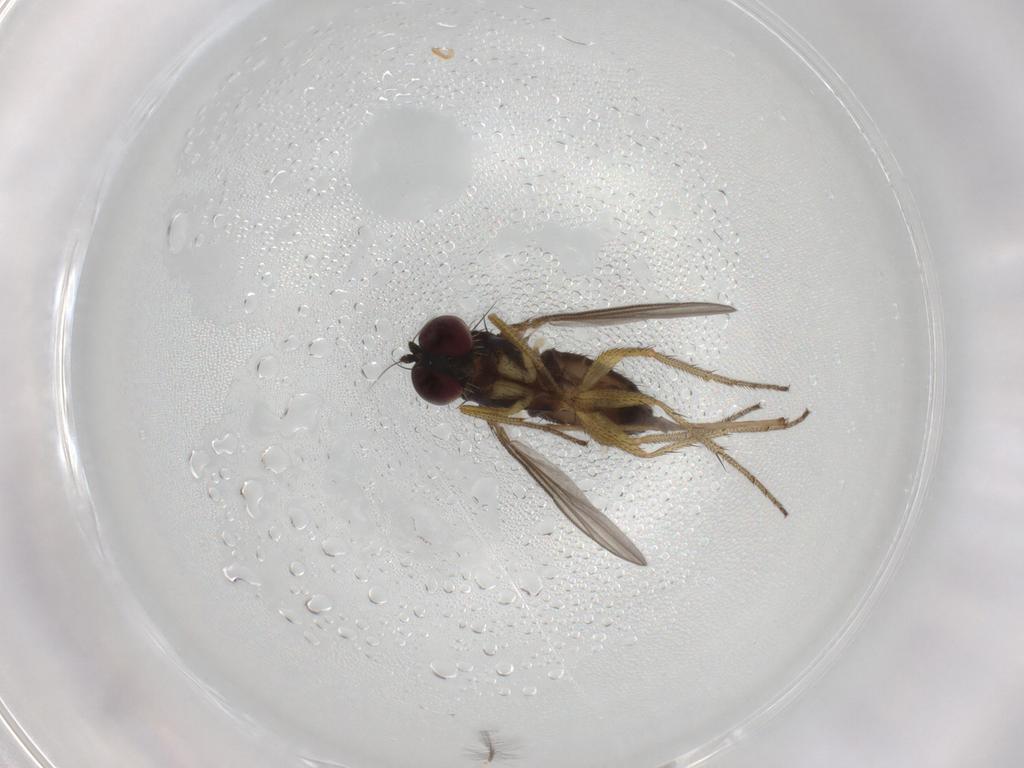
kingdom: Animalia
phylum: Arthropoda
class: Insecta
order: Diptera
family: Dolichopodidae
